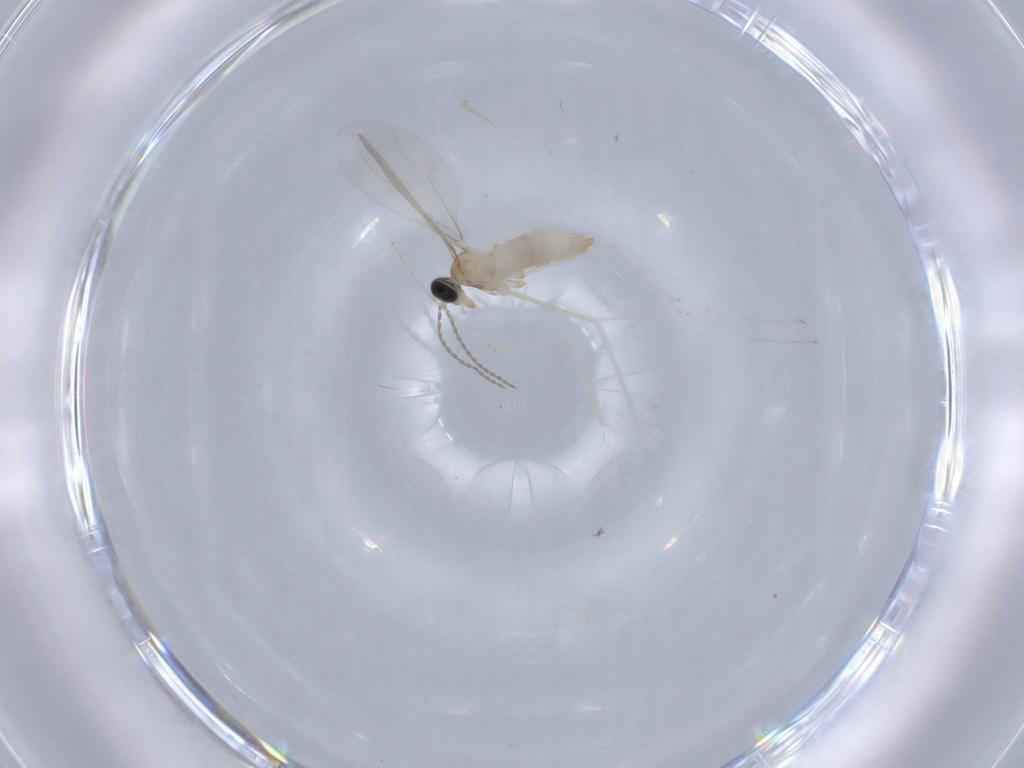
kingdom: Animalia
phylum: Arthropoda
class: Insecta
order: Diptera
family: Cecidomyiidae
